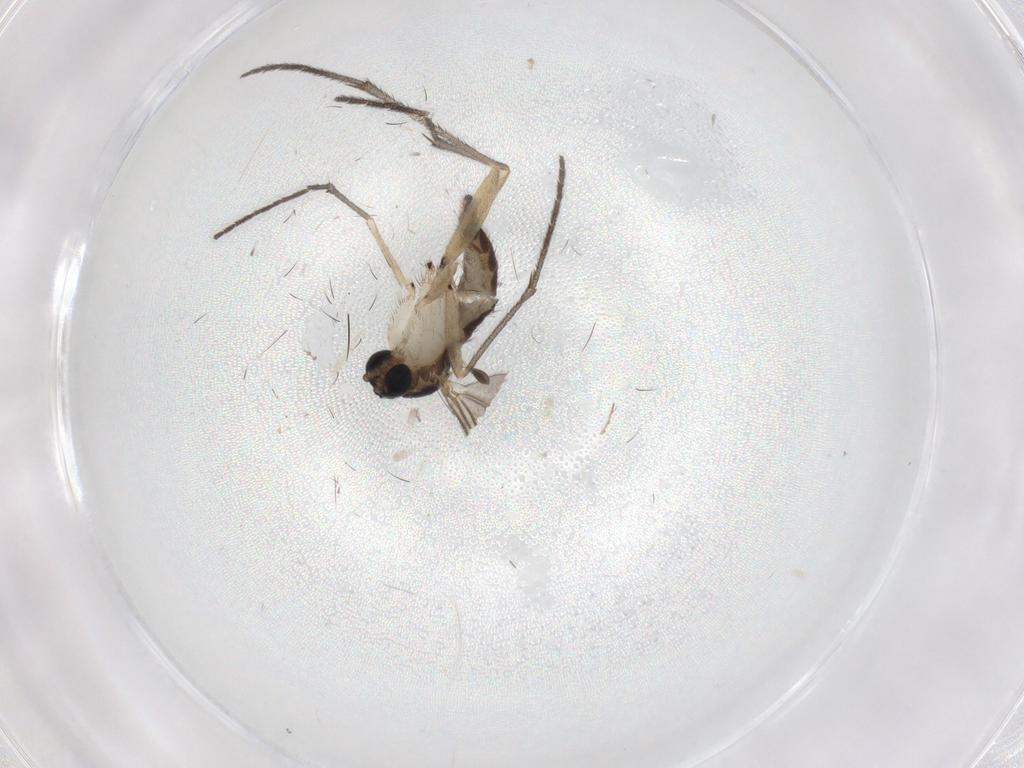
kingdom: Animalia
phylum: Arthropoda
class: Insecta
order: Diptera
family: Sciaridae
